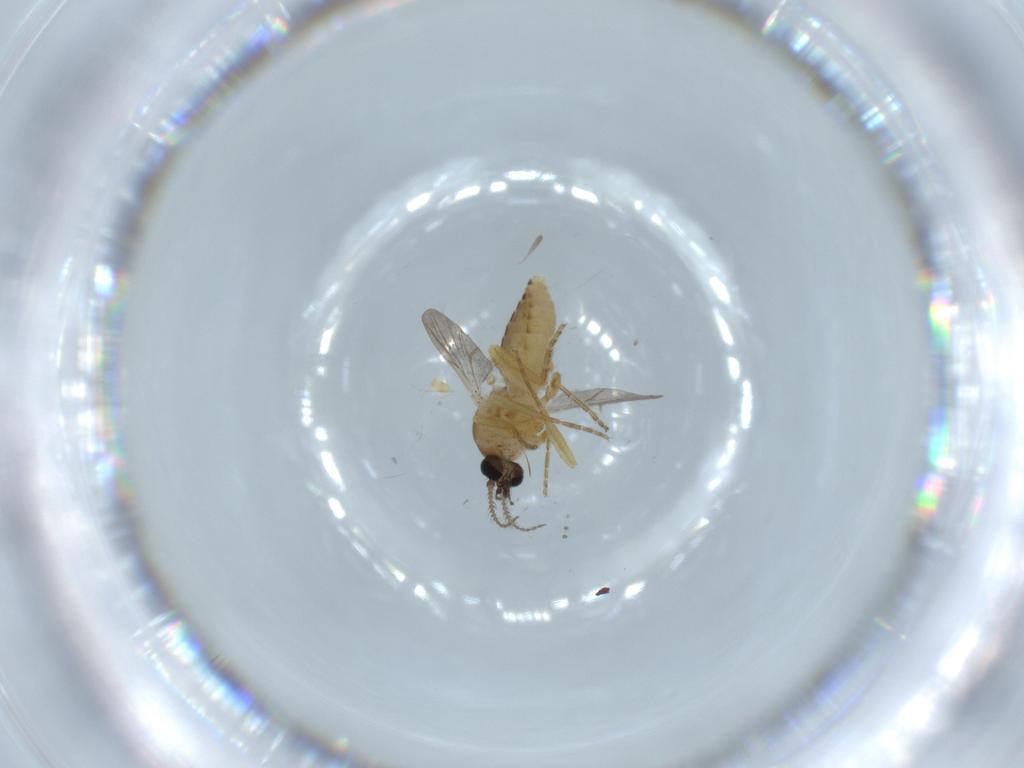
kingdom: Animalia
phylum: Arthropoda
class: Insecta
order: Diptera
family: Ceratopogonidae
